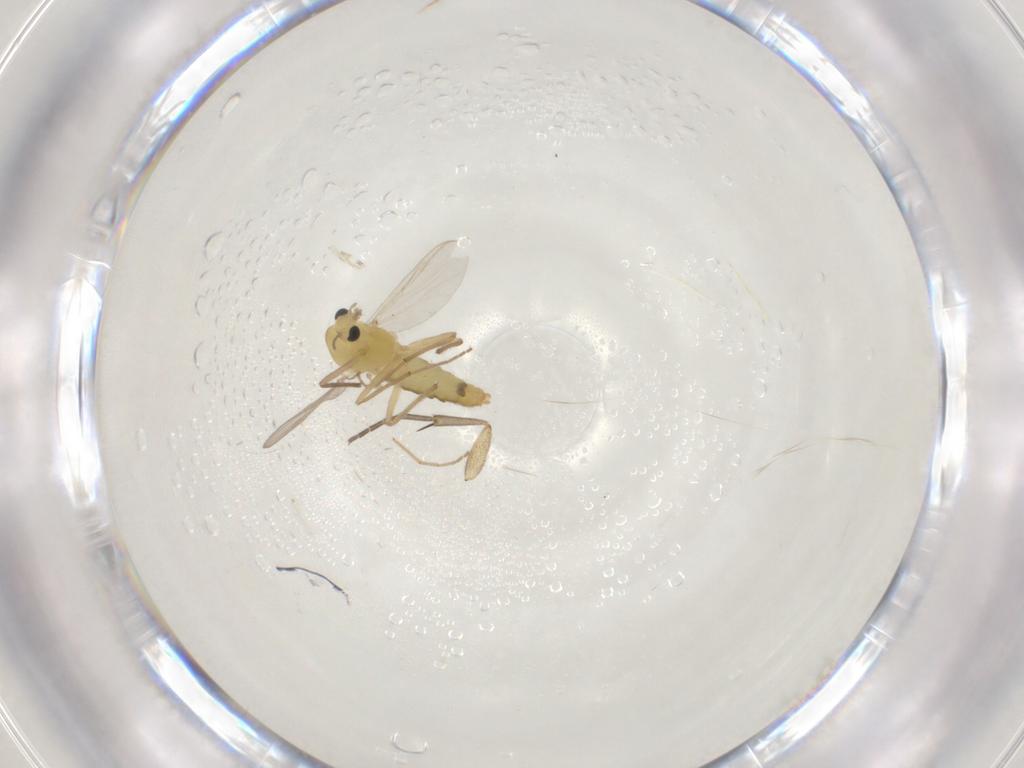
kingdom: Animalia
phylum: Arthropoda
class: Insecta
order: Diptera
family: Chironomidae
